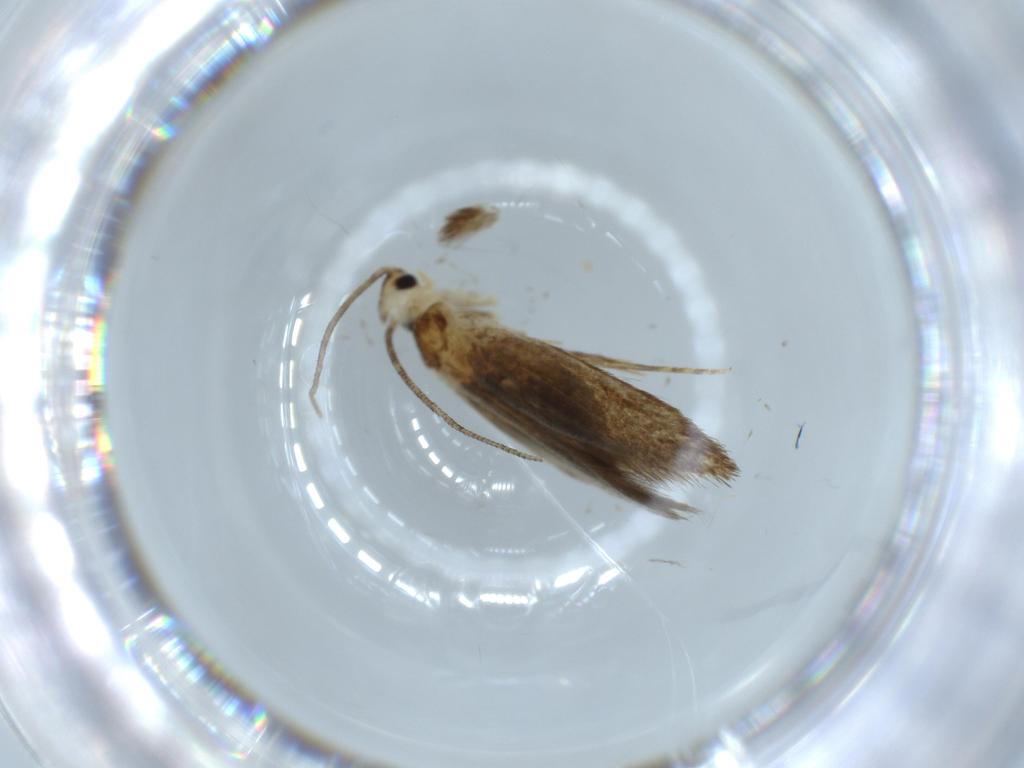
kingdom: Animalia
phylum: Arthropoda
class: Insecta
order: Lepidoptera
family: Tineidae
